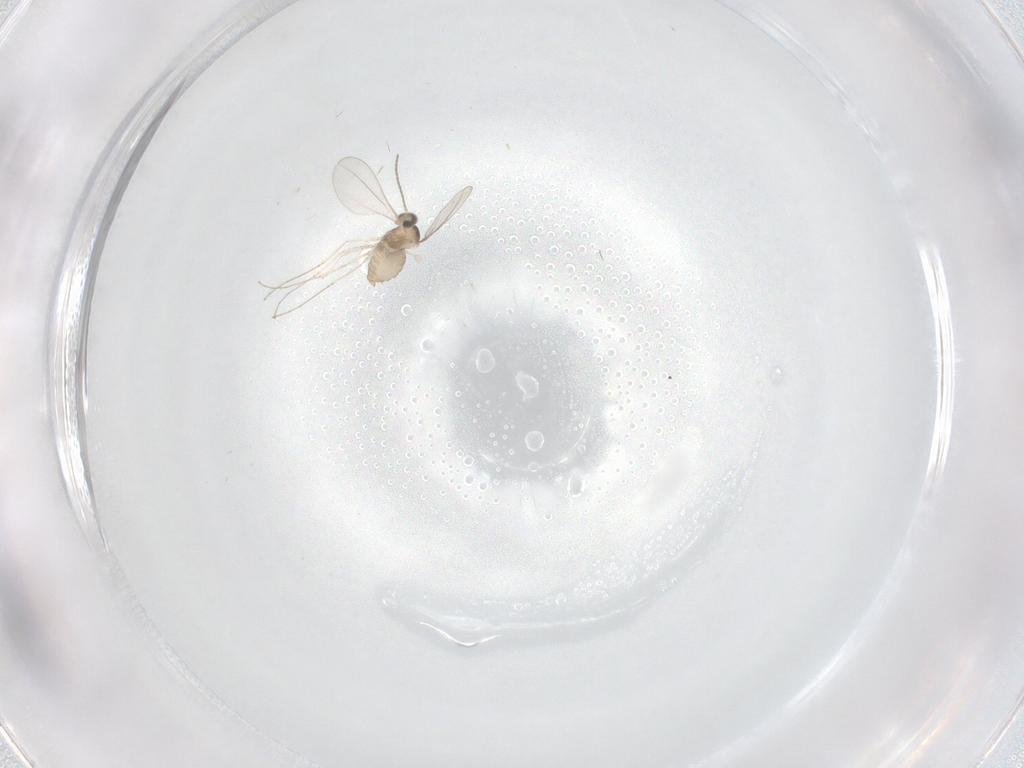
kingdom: Animalia
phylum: Arthropoda
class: Insecta
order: Diptera
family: Cecidomyiidae
